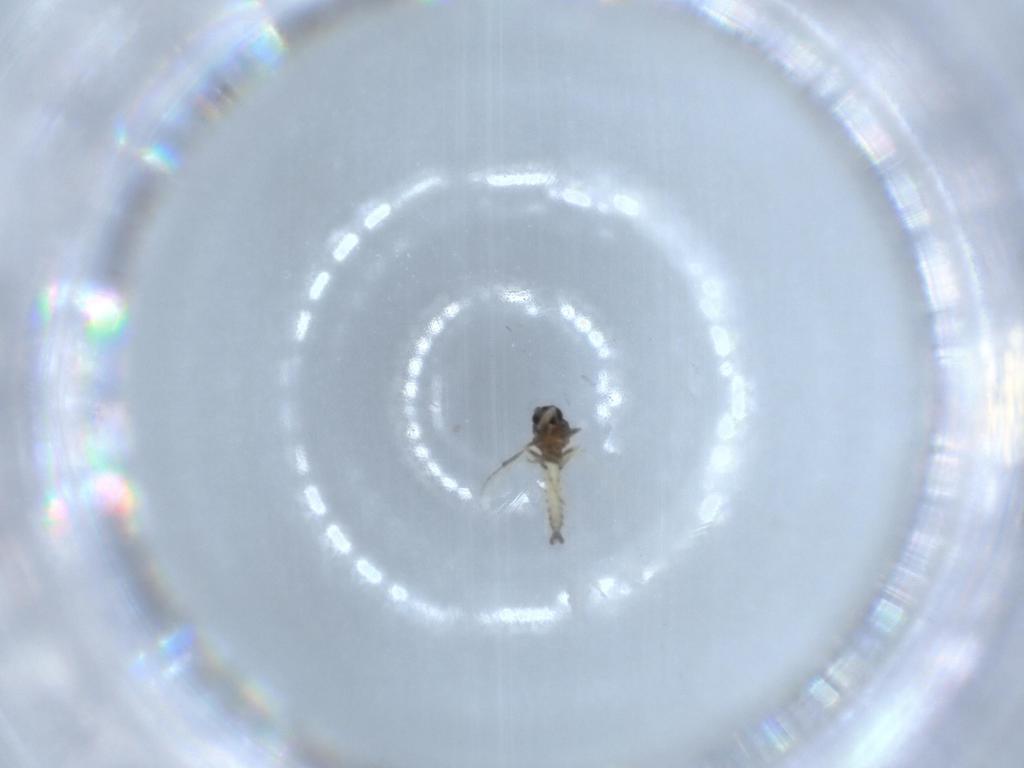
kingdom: Animalia
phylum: Arthropoda
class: Insecta
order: Diptera
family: Ceratopogonidae
